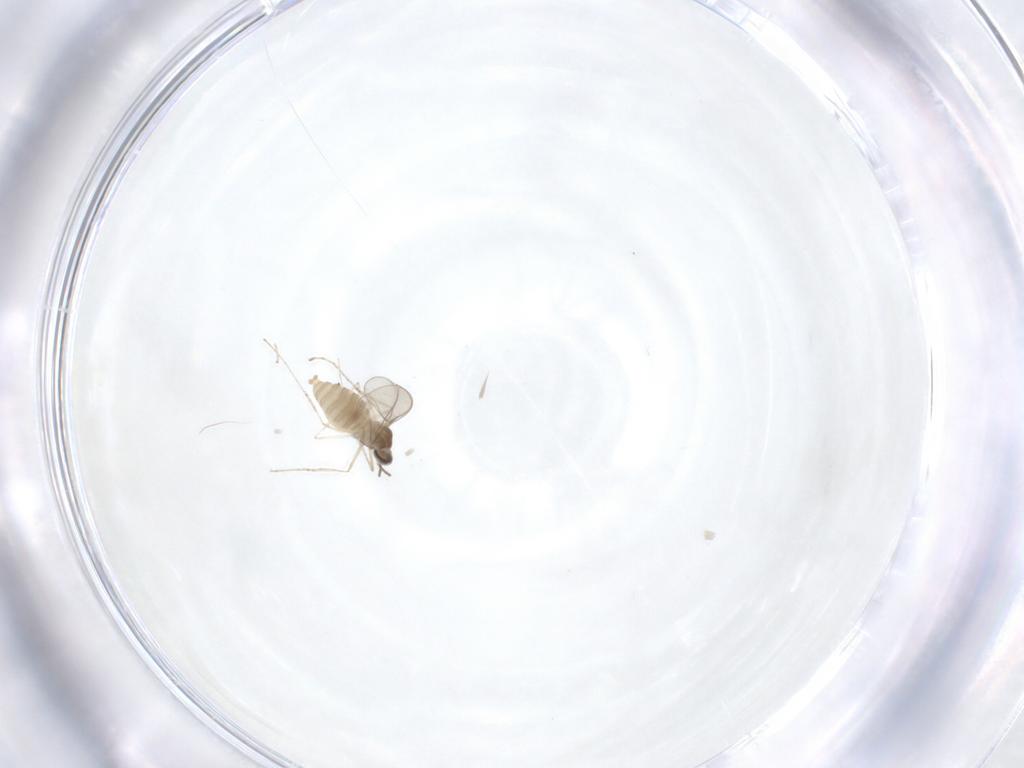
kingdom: Animalia
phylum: Arthropoda
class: Insecta
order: Diptera
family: Cecidomyiidae
